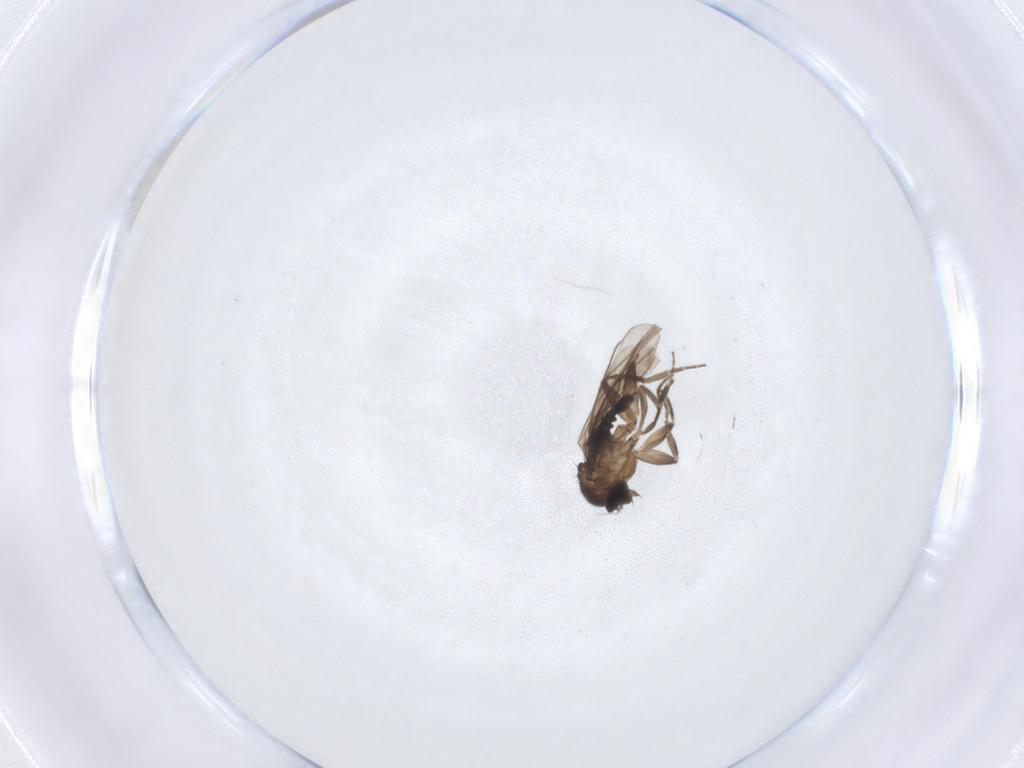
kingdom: Animalia
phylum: Arthropoda
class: Insecta
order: Diptera
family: Phoridae
